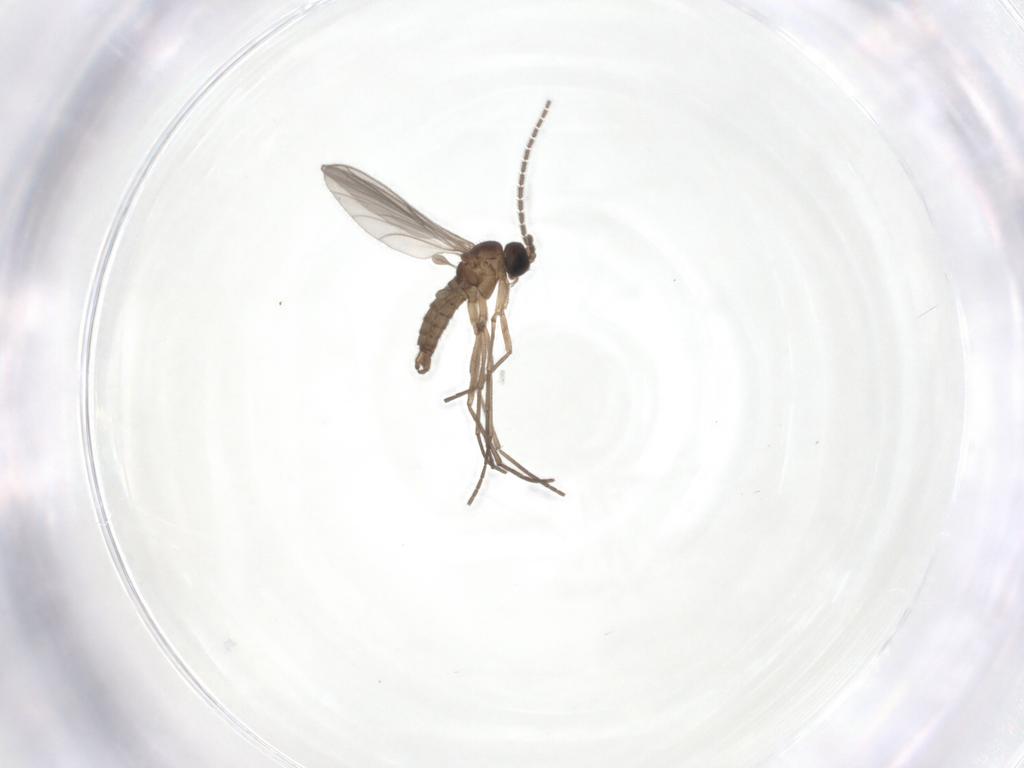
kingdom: Animalia
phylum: Arthropoda
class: Insecta
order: Diptera
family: Sciaridae
